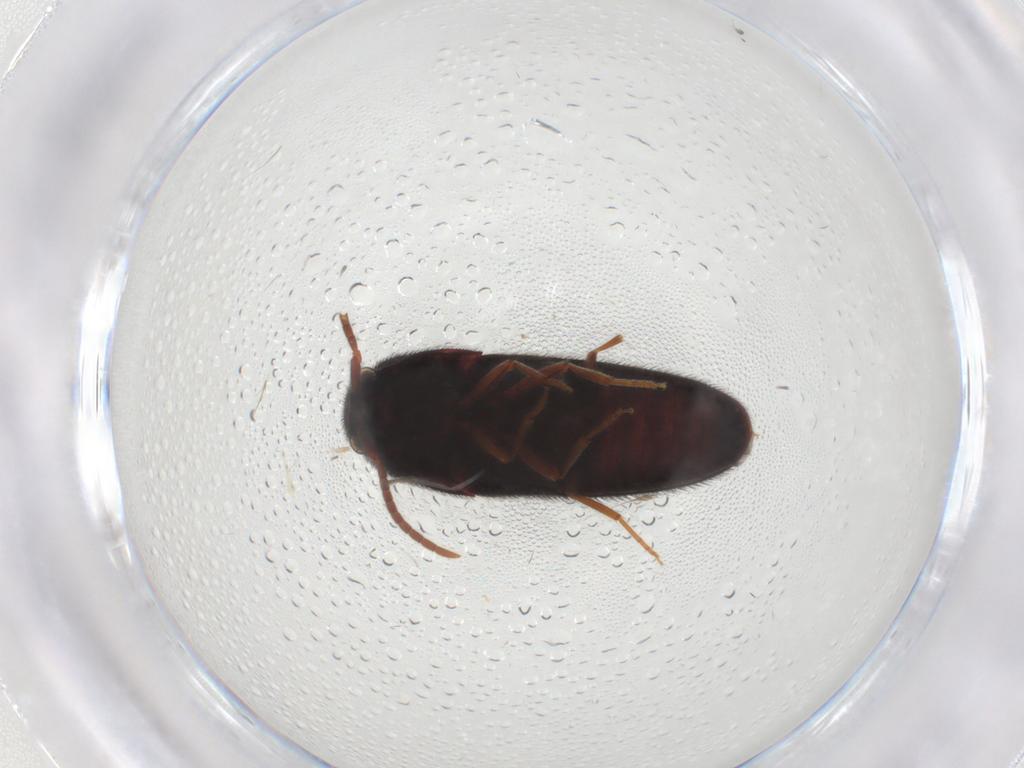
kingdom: Animalia
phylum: Arthropoda
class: Insecta
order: Coleoptera
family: Eucnemidae
